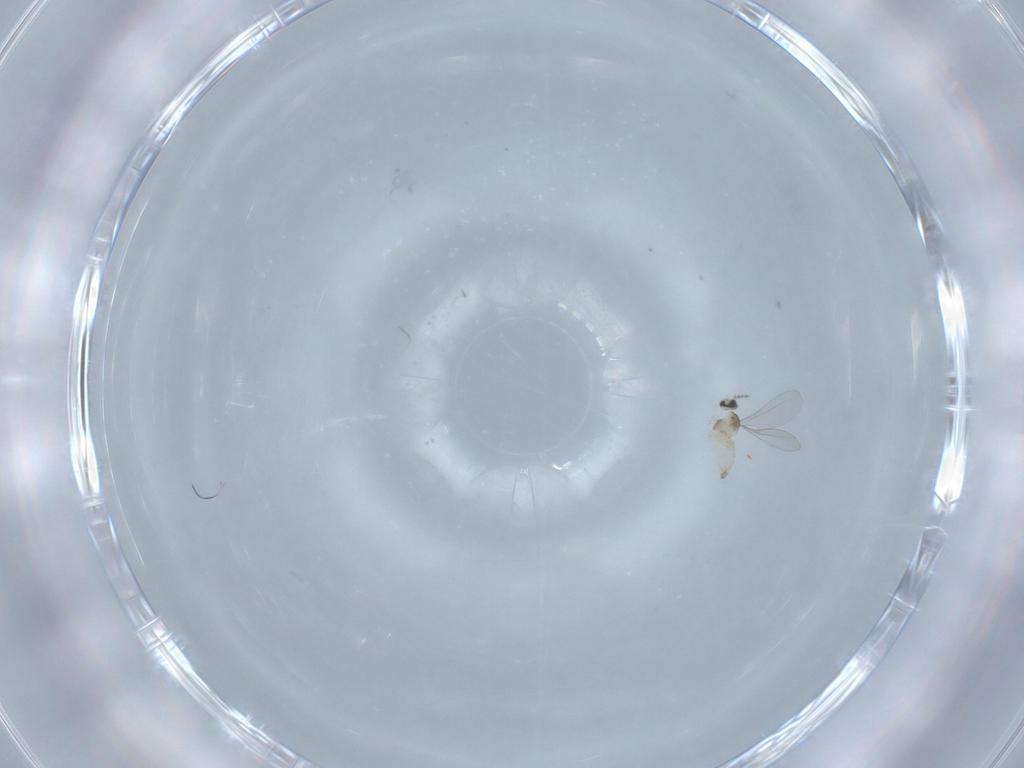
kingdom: Animalia
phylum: Arthropoda
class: Insecta
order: Diptera
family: Cecidomyiidae
